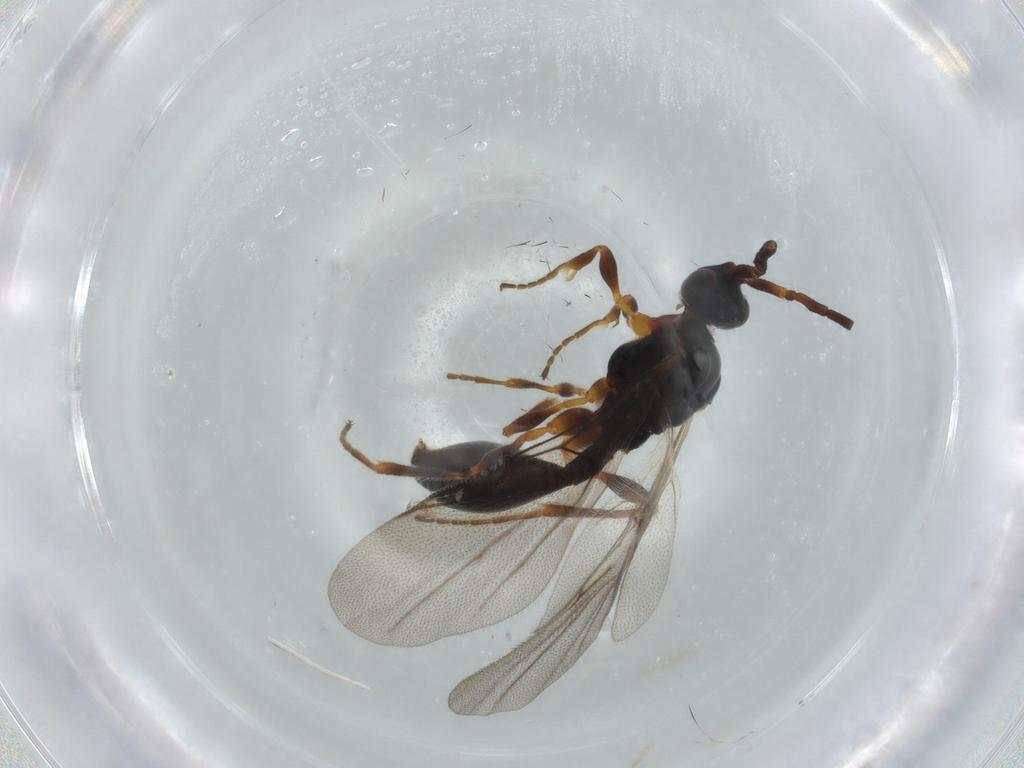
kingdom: Animalia
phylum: Arthropoda
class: Insecta
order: Hymenoptera
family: Diapriidae
